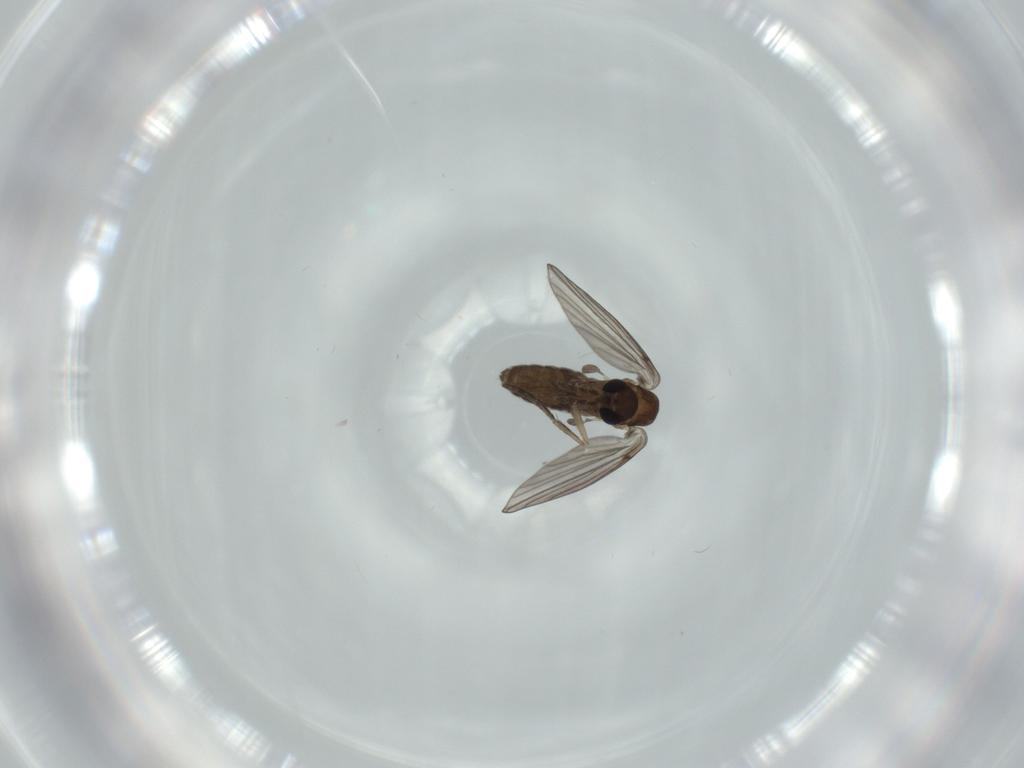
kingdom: Animalia
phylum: Arthropoda
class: Insecta
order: Diptera
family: Psychodidae
